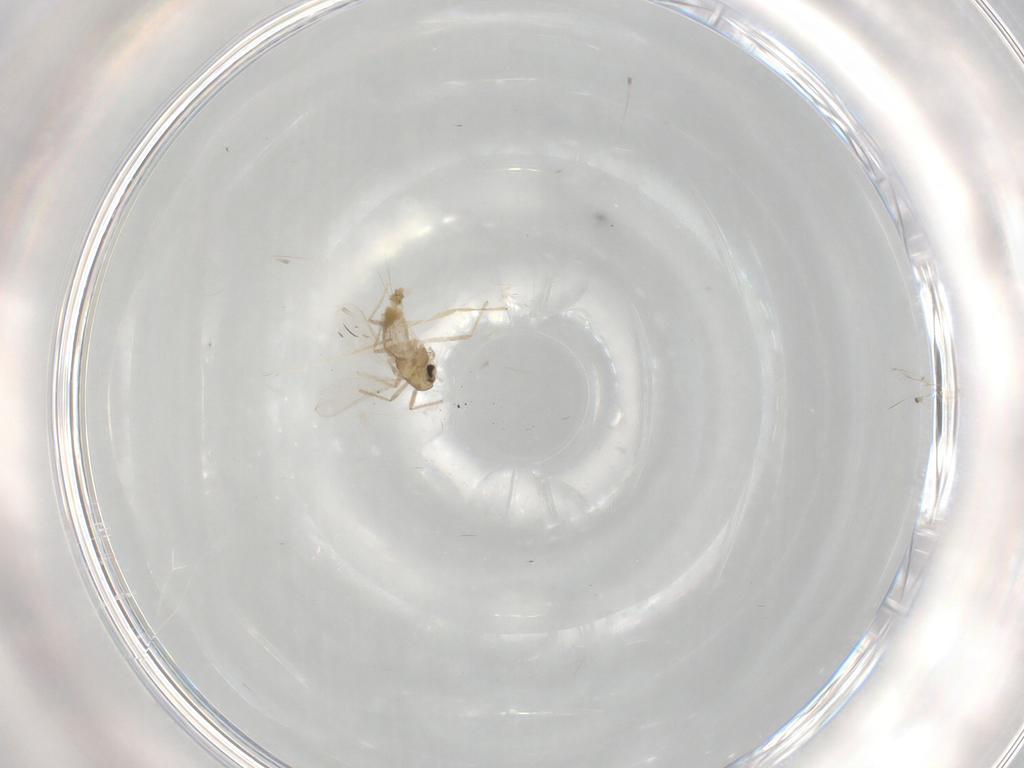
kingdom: Animalia
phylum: Arthropoda
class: Insecta
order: Diptera
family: Chironomidae
